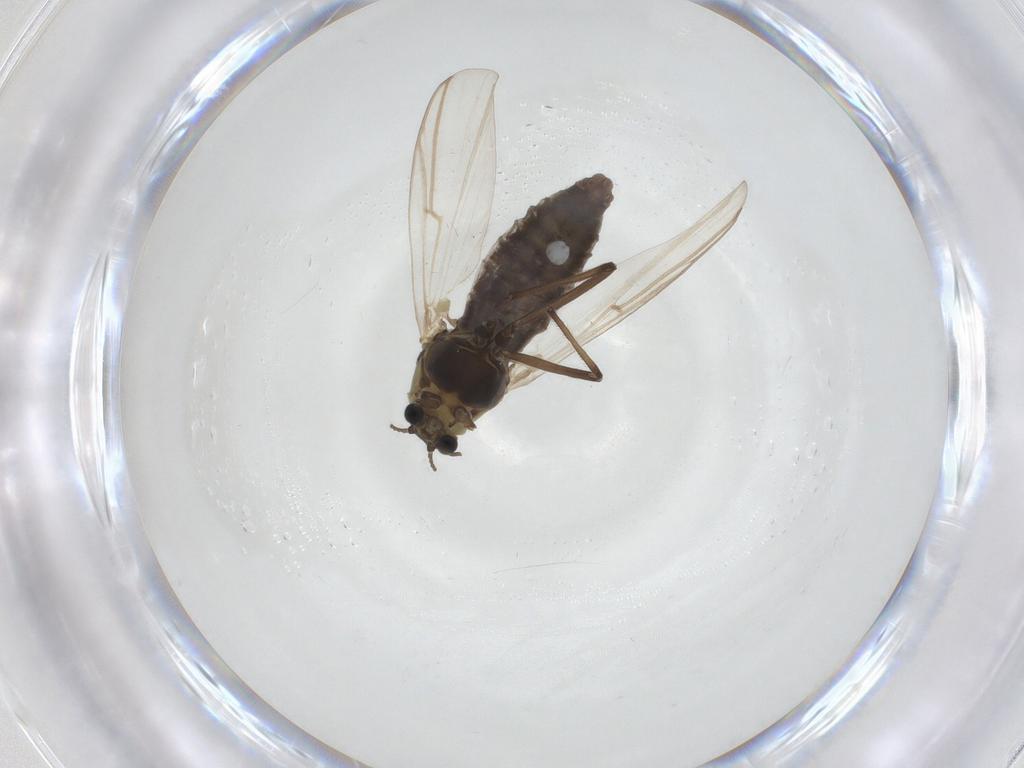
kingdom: Animalia
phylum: Arthropoda
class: Insecta
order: Diptera
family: Chironomidae
